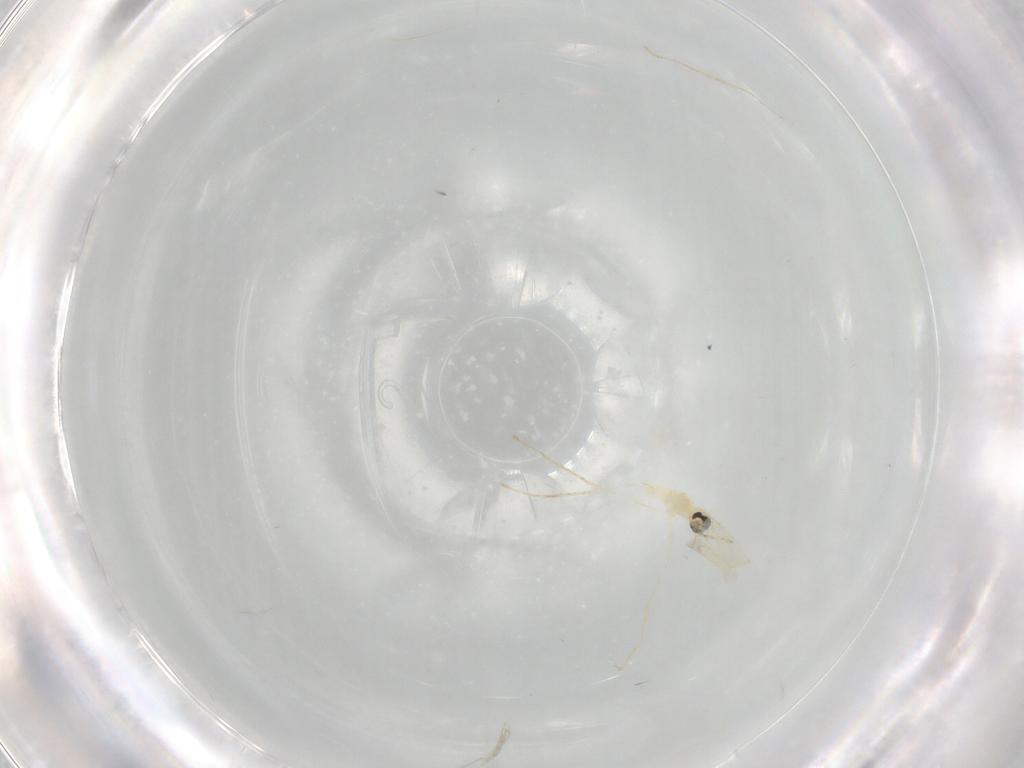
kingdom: Animalia
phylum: Arthropoda
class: Insecta
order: Diptera
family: Cecidomyiidae
